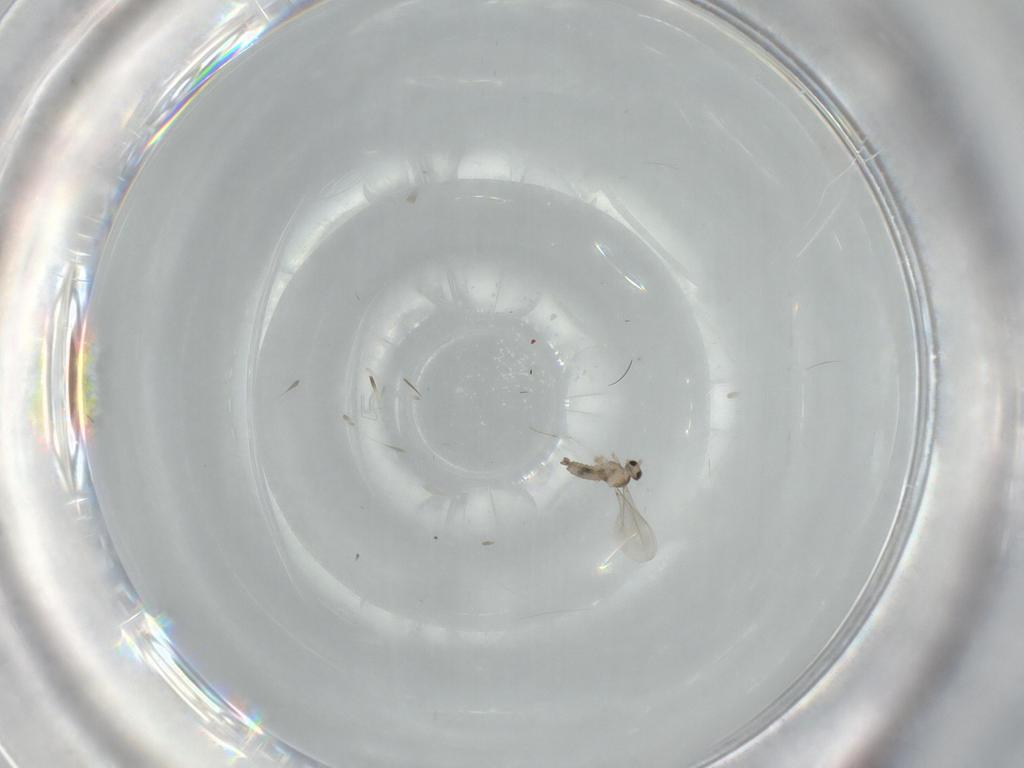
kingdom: Animalia
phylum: Arthropoda
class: Insecta
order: Diptera
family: Cecidomyiidae
